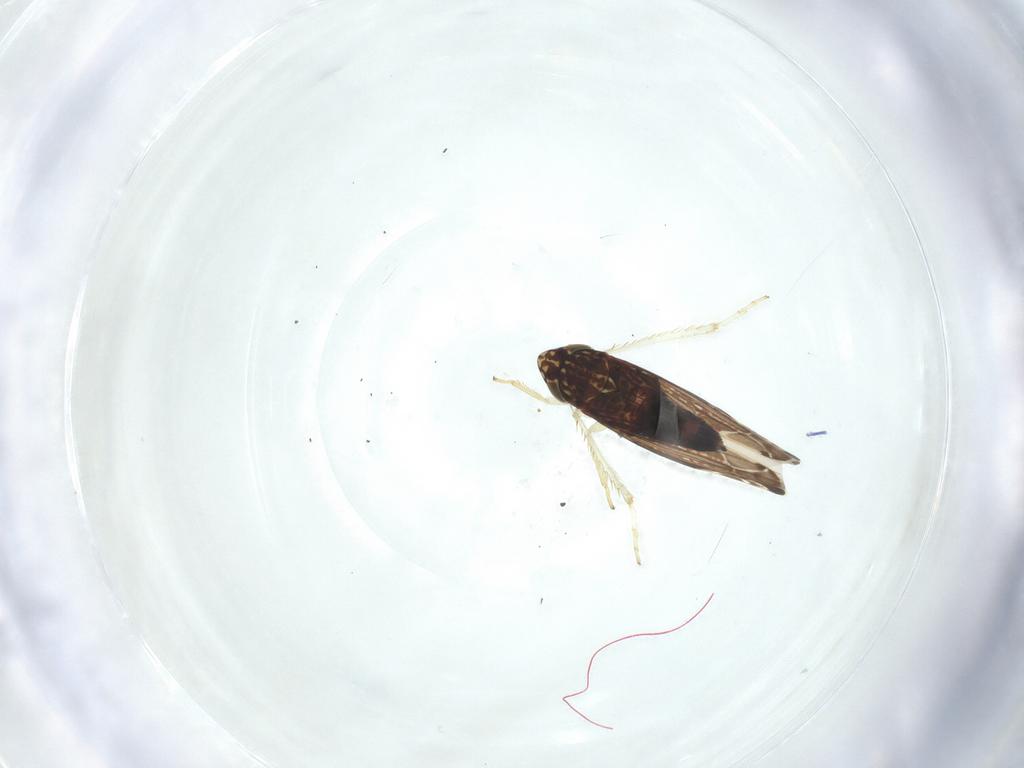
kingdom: Animalia
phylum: Arthropoda
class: Insecta
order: Hemiptera
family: Cicadellidae
